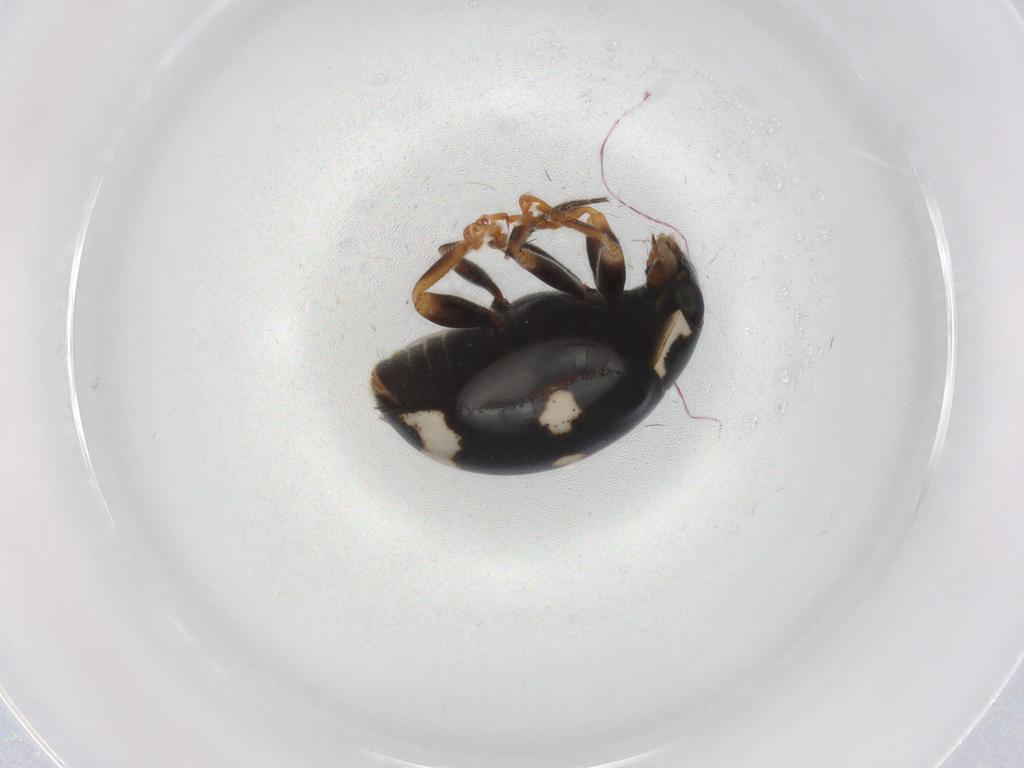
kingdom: Animalia
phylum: Arthropoda
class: Insecta
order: Coleoptera
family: Coccinellidae
